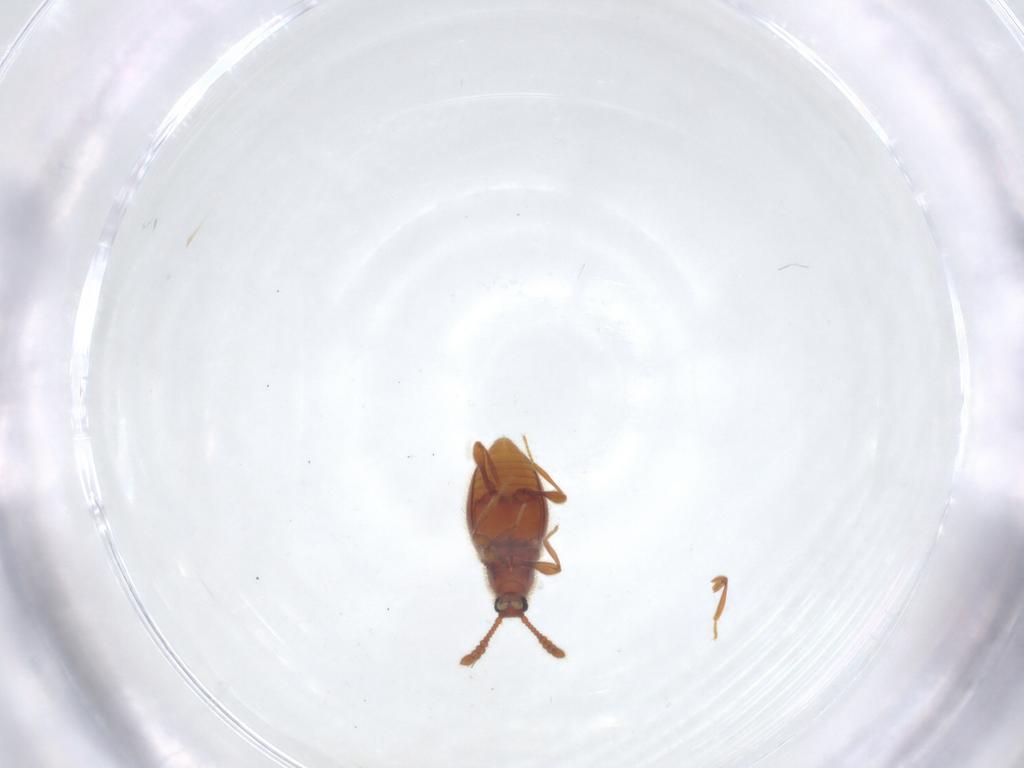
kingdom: Animalia
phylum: Arthropoda
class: Insecta
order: Coleoptera
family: Staphylinidae
